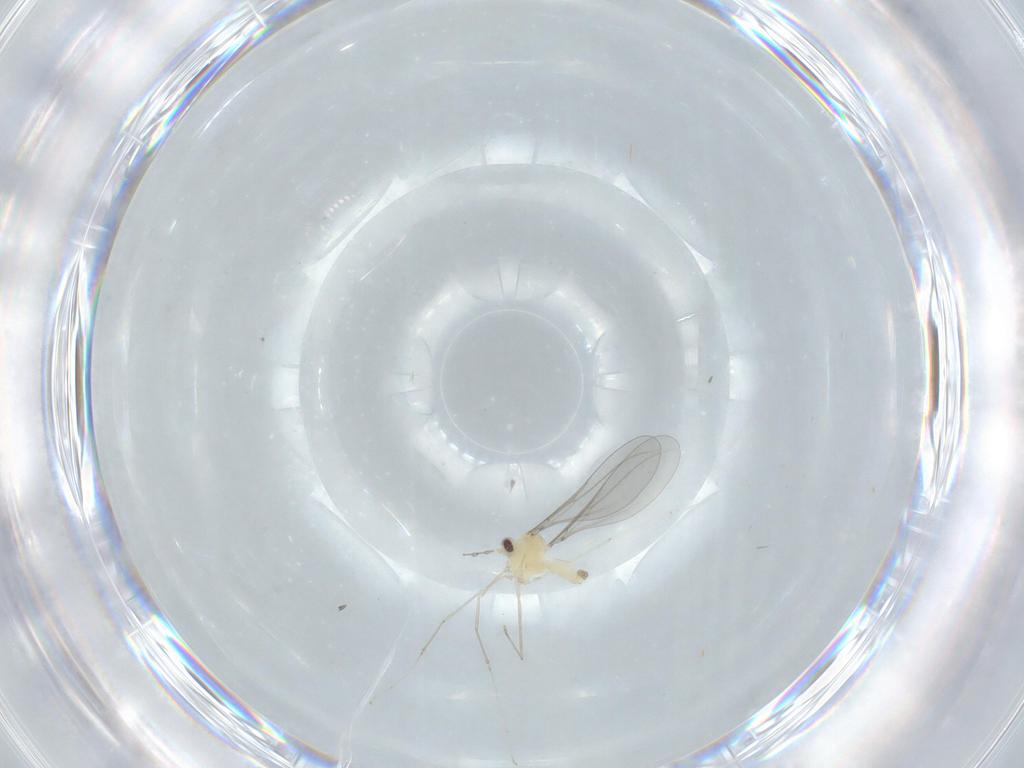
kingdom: Animalia
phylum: Arthropoda
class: Insecta
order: Diptera
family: Cecidomyiidae
